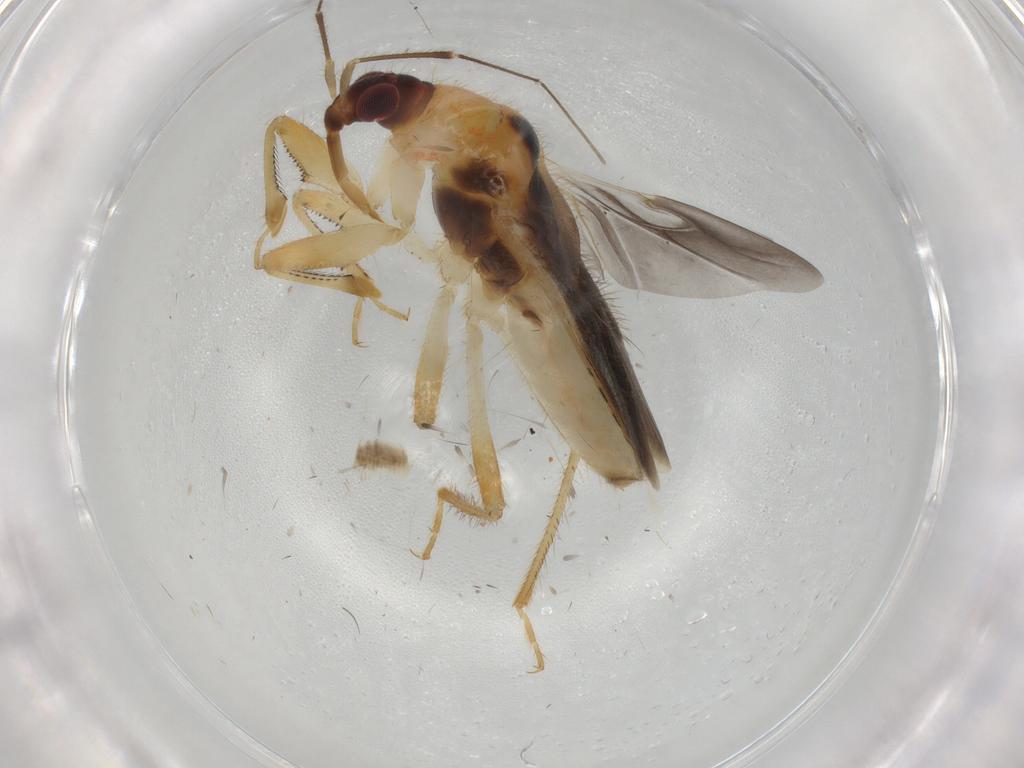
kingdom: Animalia
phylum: Arthropoda
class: Insecta
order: Hemiptera
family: Nabidae
